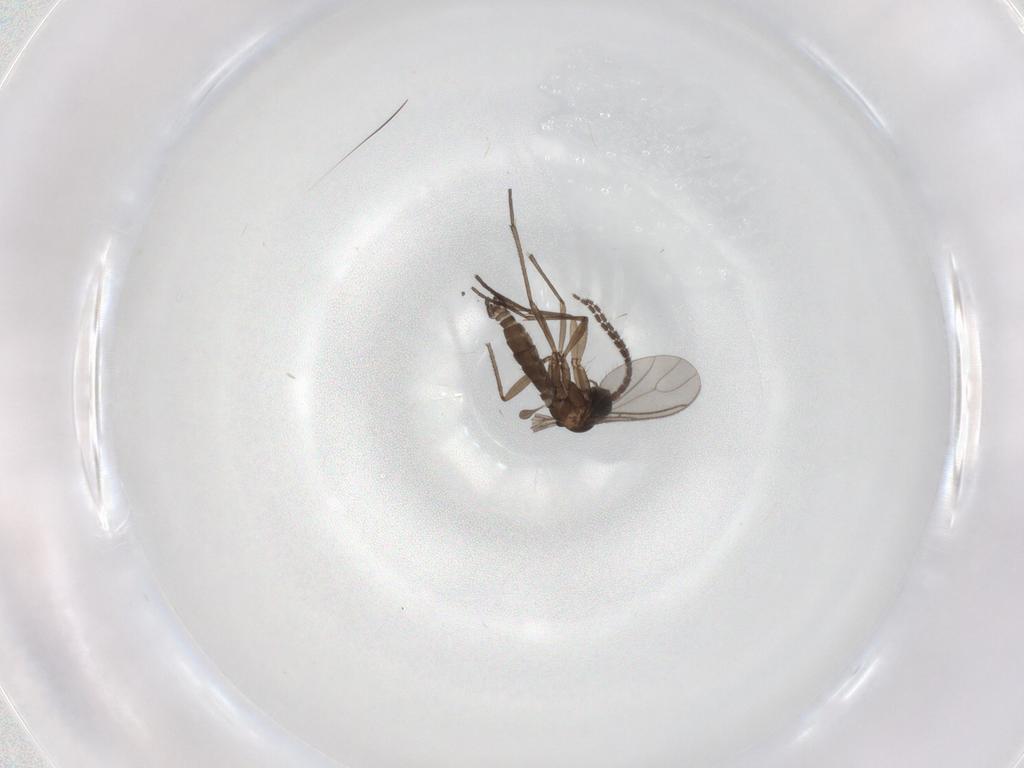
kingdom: Animalia
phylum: Arthropoda
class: Insecta
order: Diptera
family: Sciaridae
